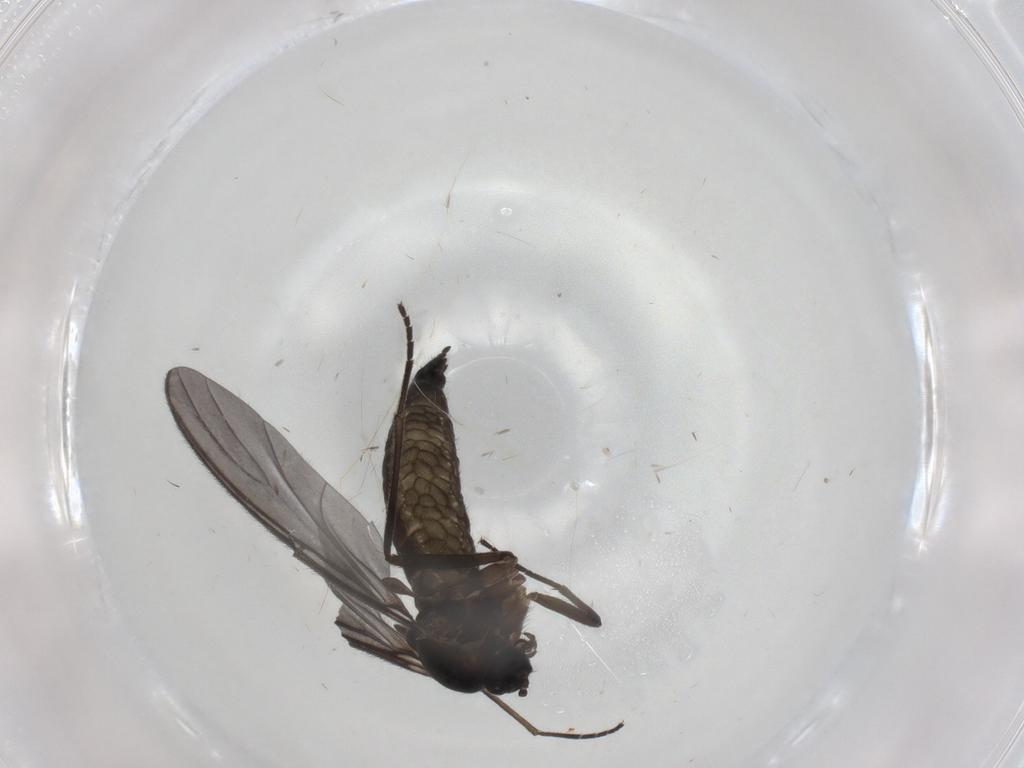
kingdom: Animalia
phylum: Arthropoda
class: Insecta
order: Diptera
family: Sciaridae
